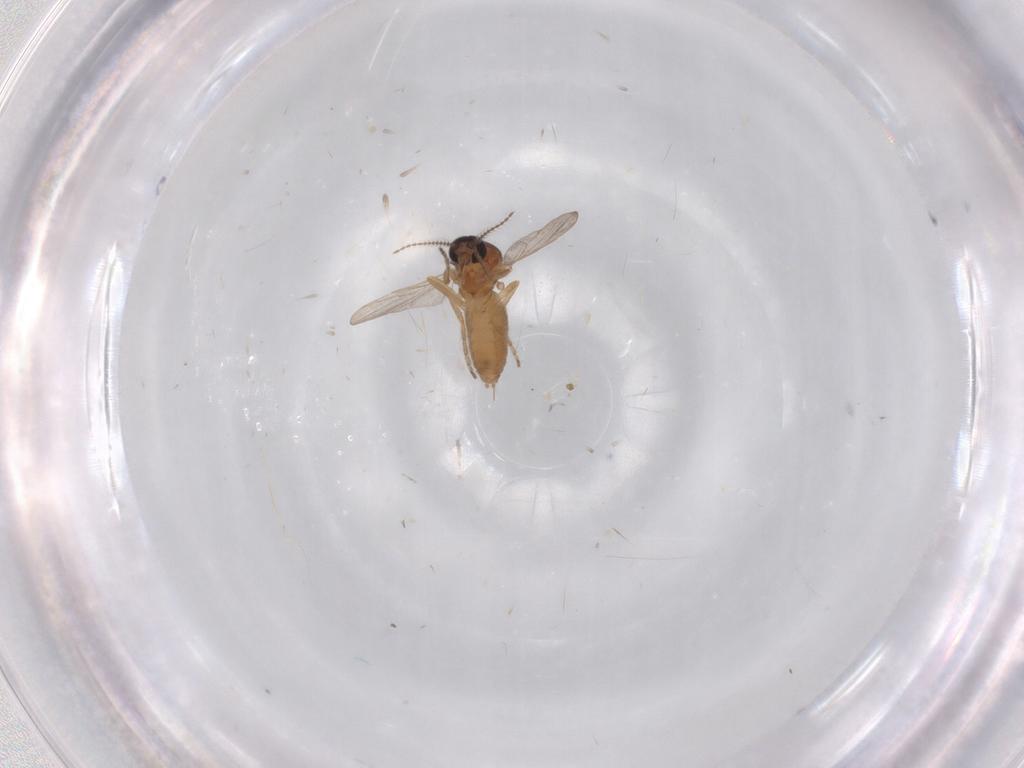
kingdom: Animalia
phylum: Arthropoda
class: Insecta
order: Diptera
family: Ceratopogonidae
